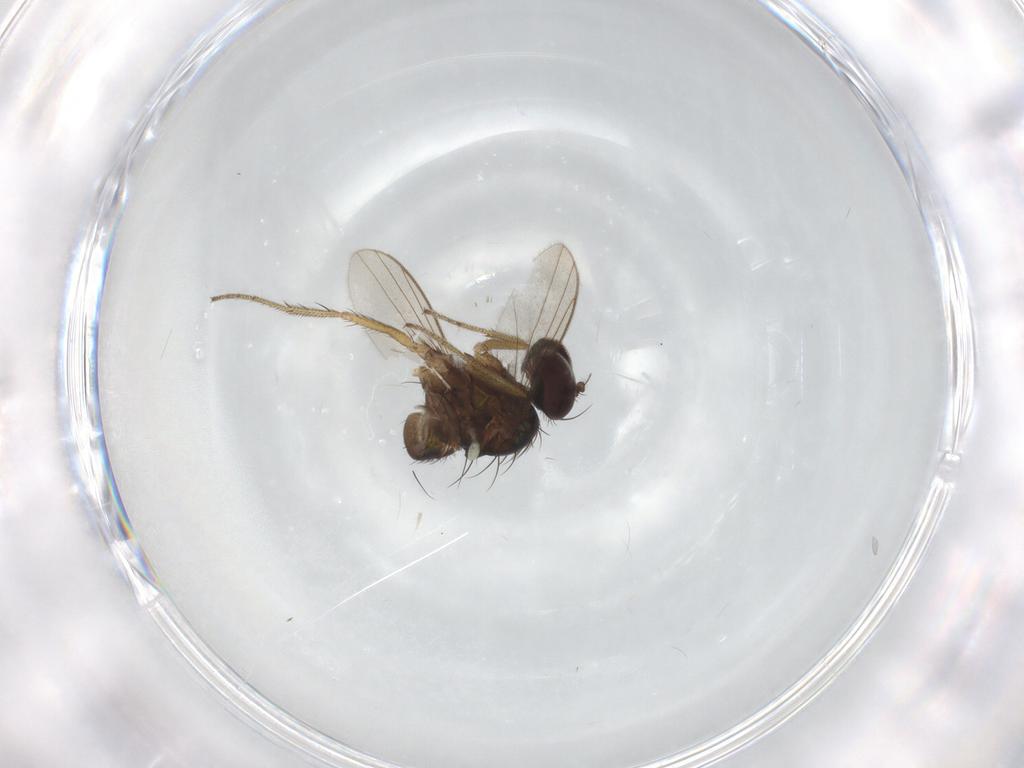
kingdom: Animalia
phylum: Arthropoda
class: Insecta
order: Diptera
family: Dolichopodidae
